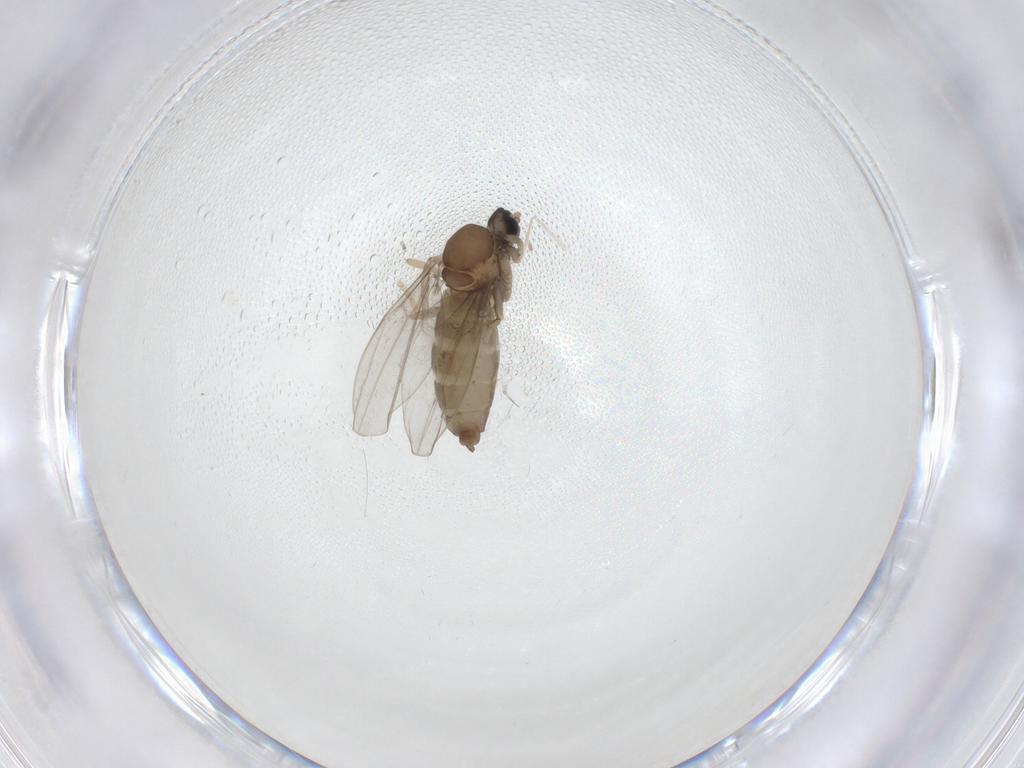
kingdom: Animalia
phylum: Arthropoda
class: Insecta
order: Diptera
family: Cecidomyiidae
